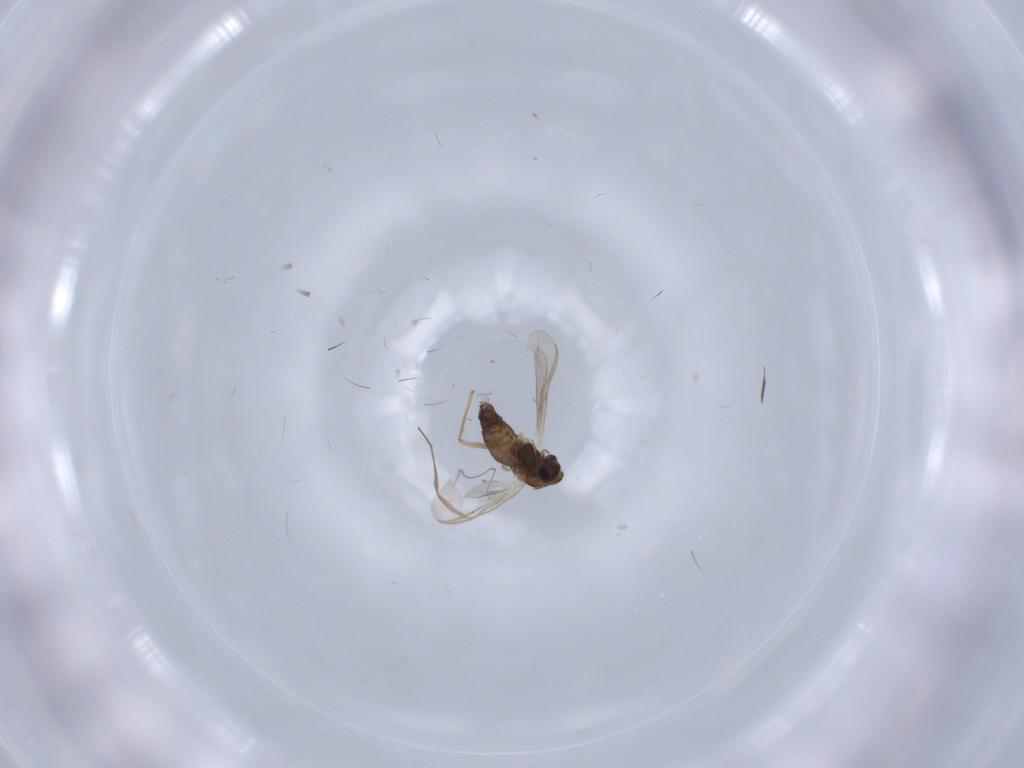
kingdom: Animalia
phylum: Arthropoda
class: Insecta
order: Diptera
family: Chironomidae
